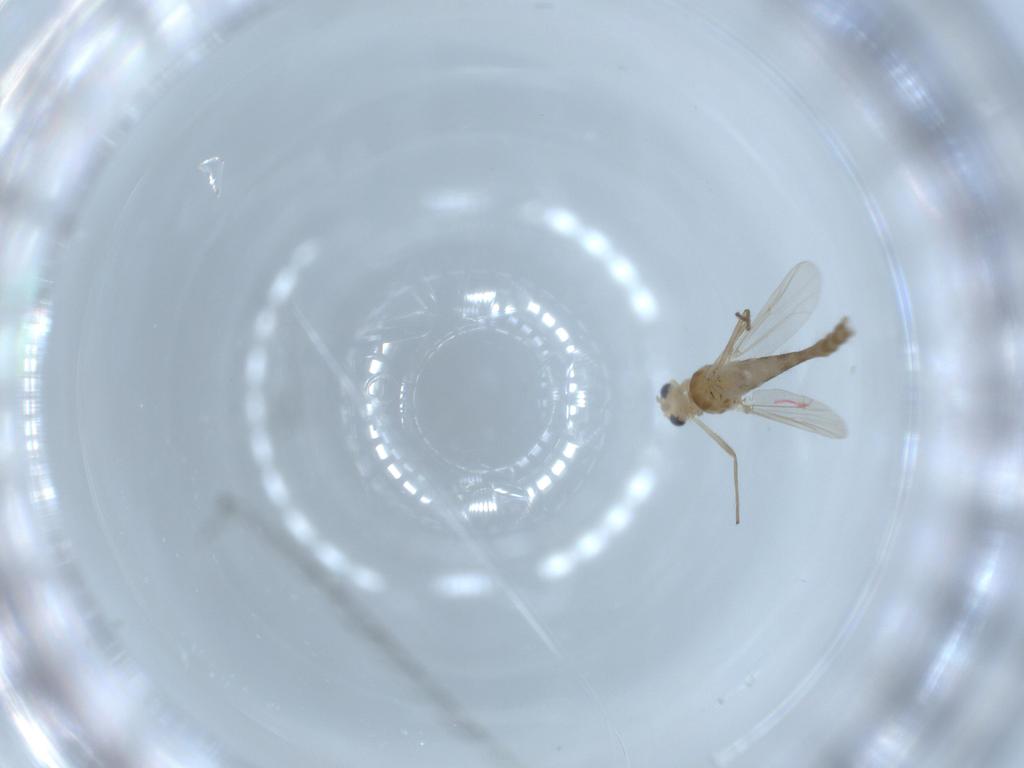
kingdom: Animalia
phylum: Arthropoda
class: Insecta
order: Diptera
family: Chironomidae
